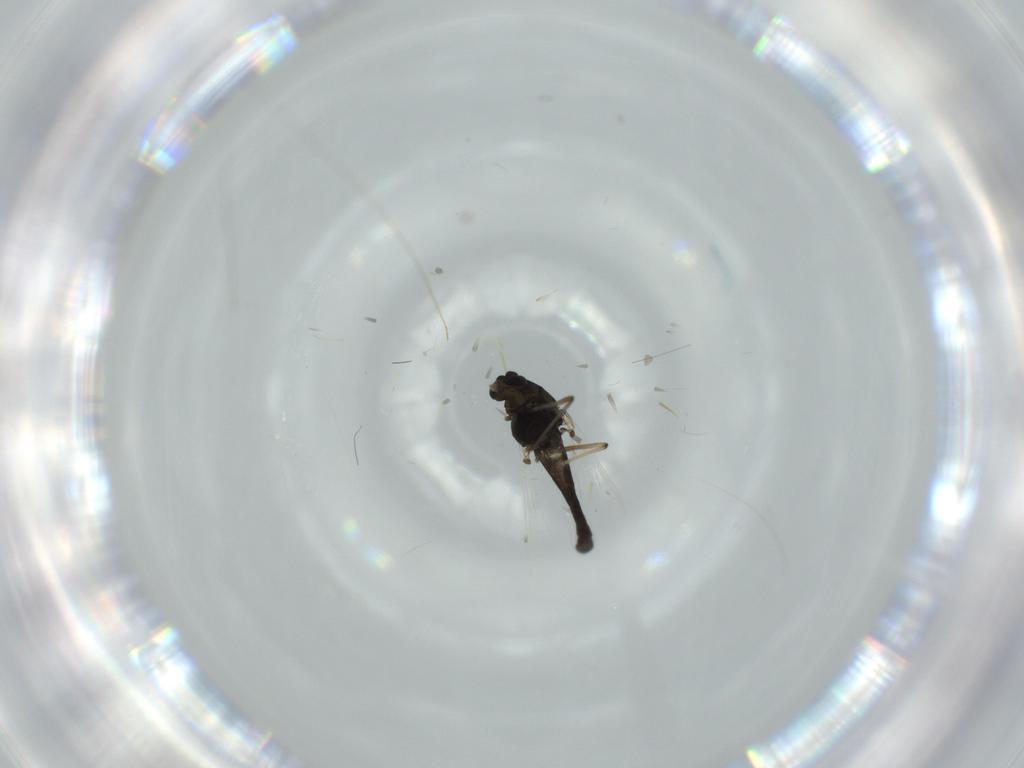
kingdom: Animalia
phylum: Arthropoda
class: Insecta
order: Diptera
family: Chironomidae
